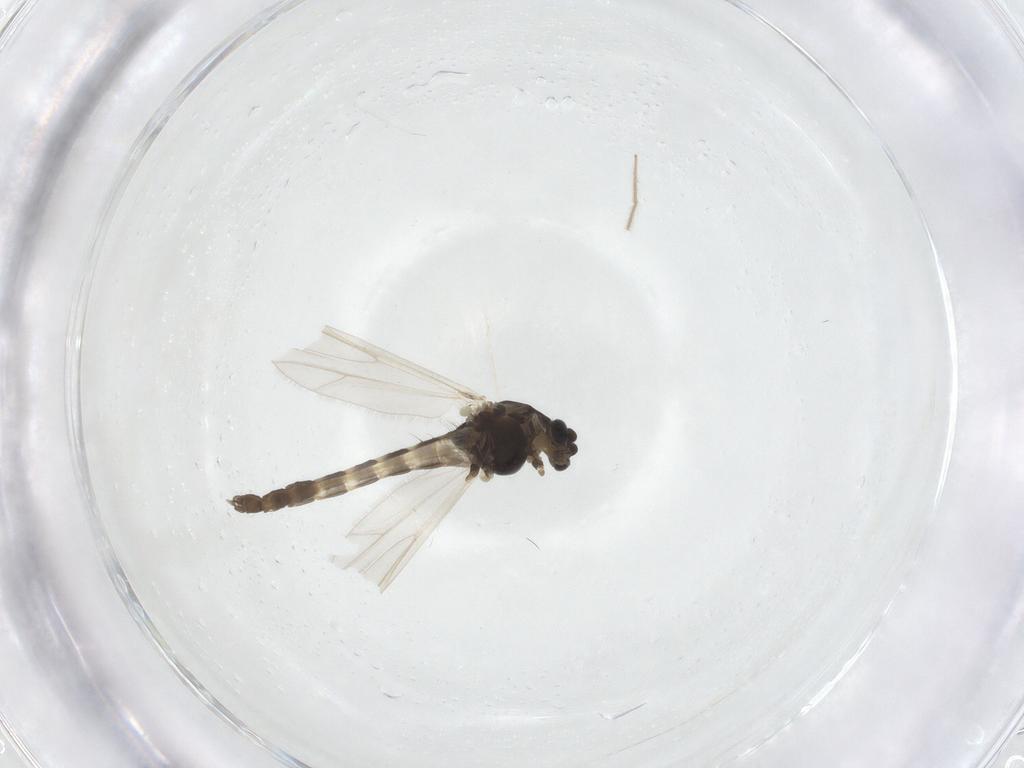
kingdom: Animalia
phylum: Arthropoda
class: Insecta
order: Diptera
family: Chironomidae
